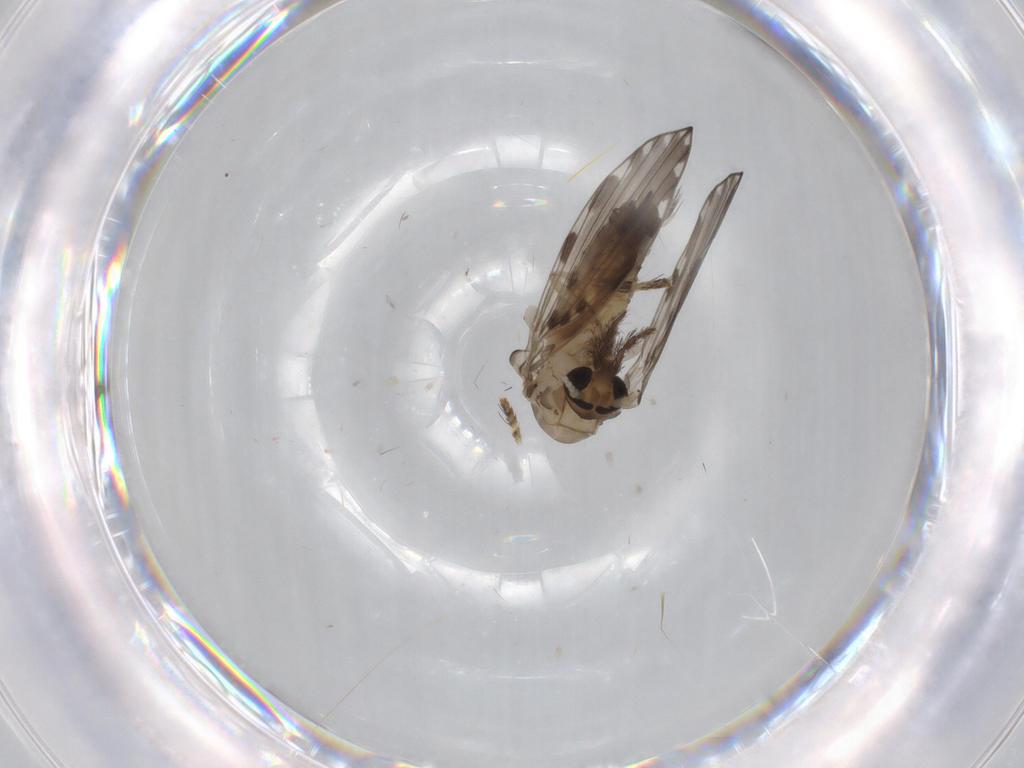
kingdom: Animalia
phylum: Arthropoda
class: Insecta
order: Diptera
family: Psychodidae
